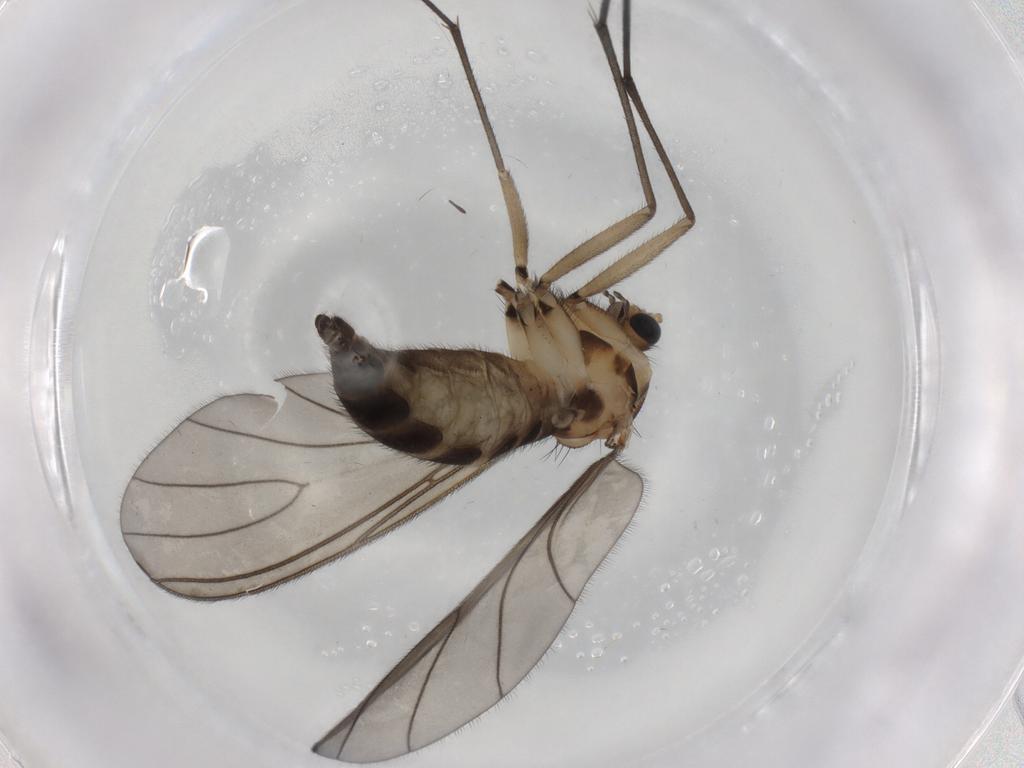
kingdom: Animalia
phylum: Arthropoda
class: Insecta
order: Diptera
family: Sciaridae
